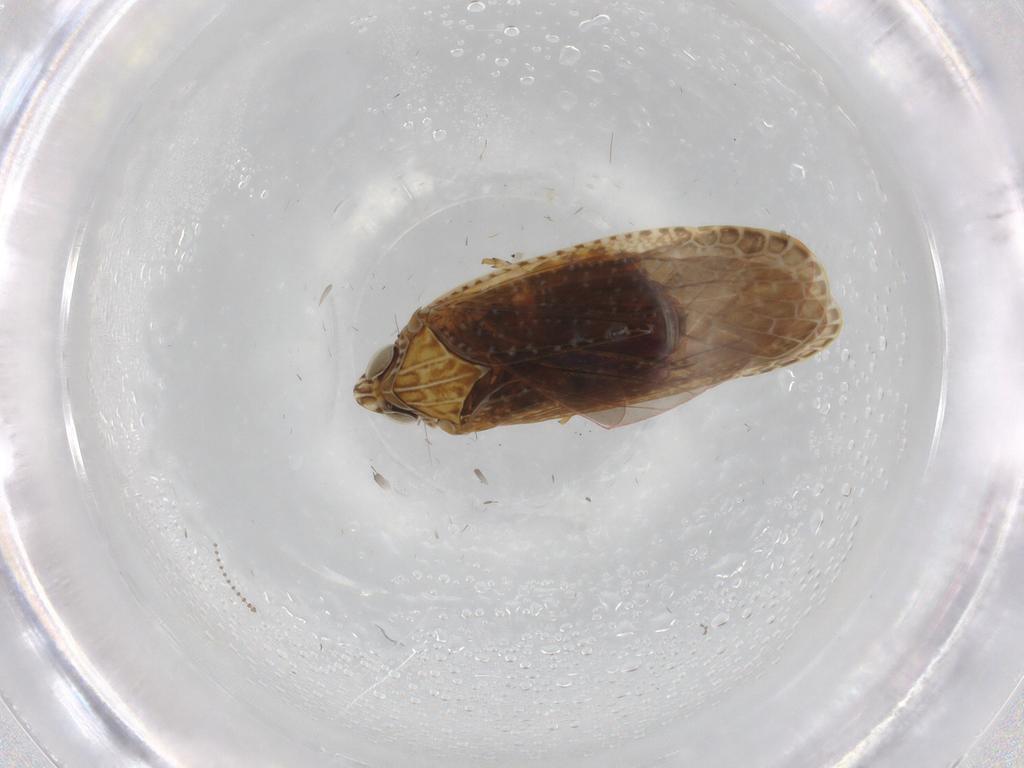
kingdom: Animalia
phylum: Arthropoda
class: Insecta
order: Hemiptera
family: Achilidae
